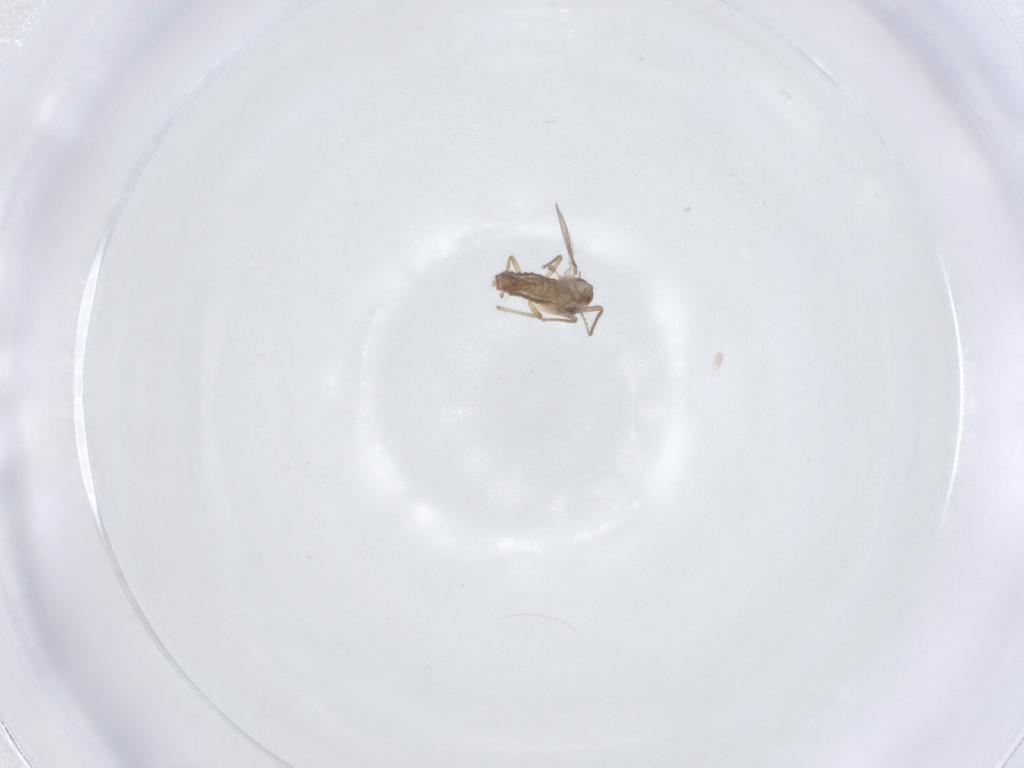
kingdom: Animalia
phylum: Arthropoda
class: Insecta
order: Diptera
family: Chironomidae
